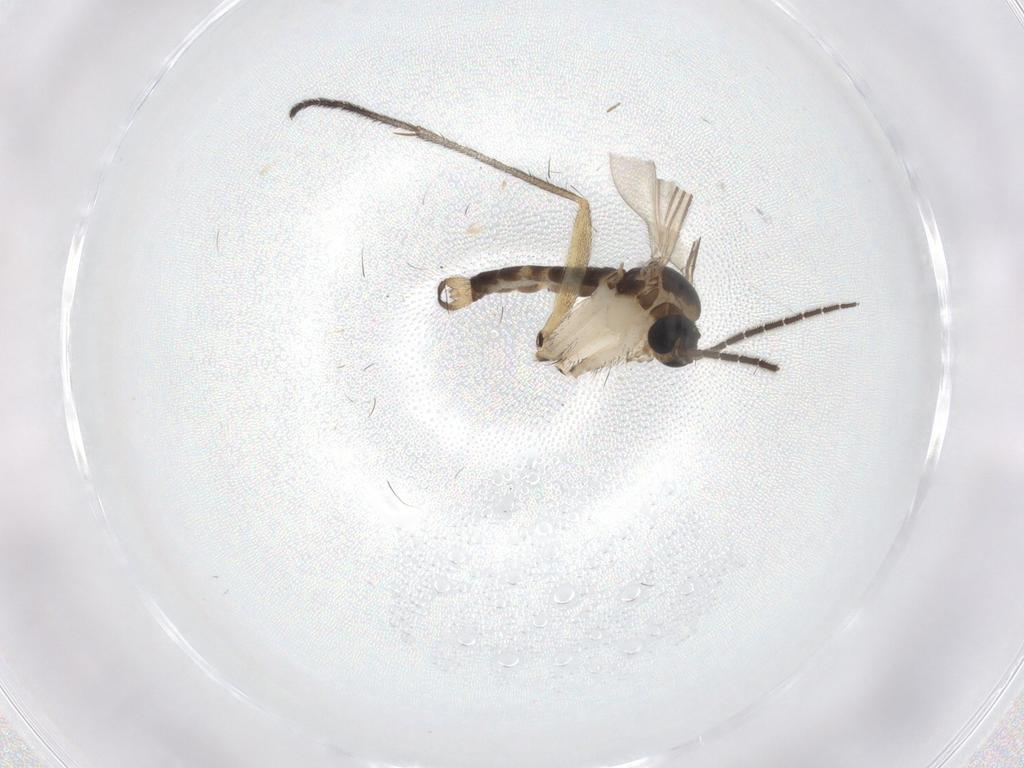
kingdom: Animalia
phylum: Arthropoda
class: Insecta
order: Diptera
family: Sciaridae
